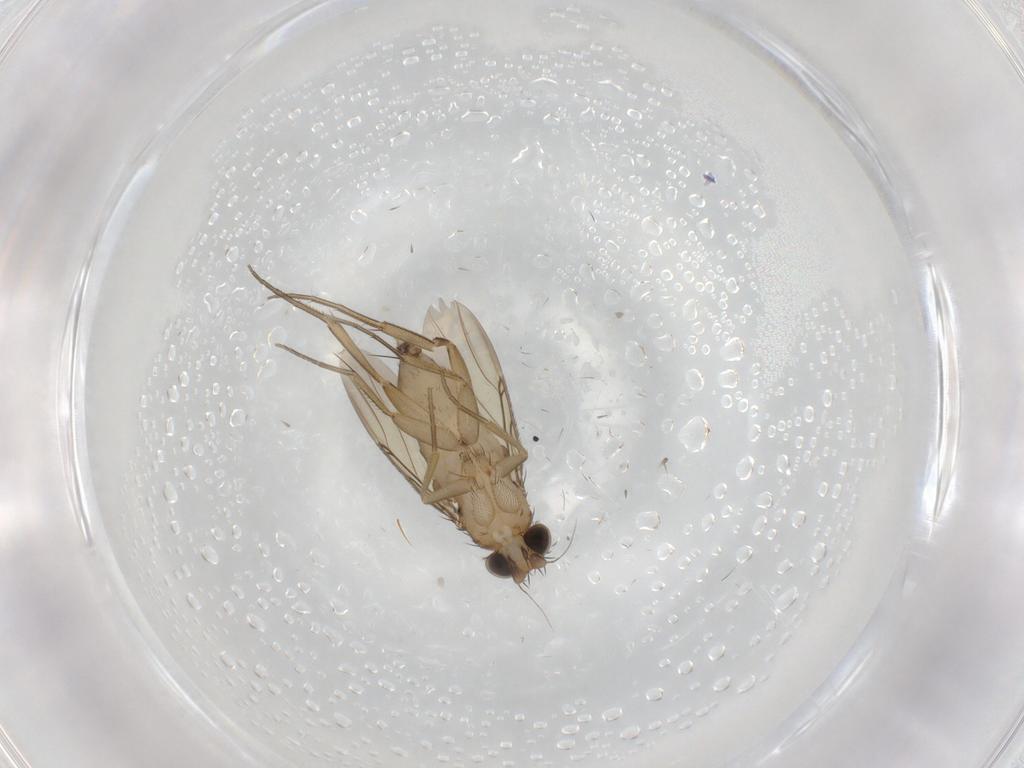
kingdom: Animalia
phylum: Arthropoda
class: Insecta
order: Diptera
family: Phoridae
